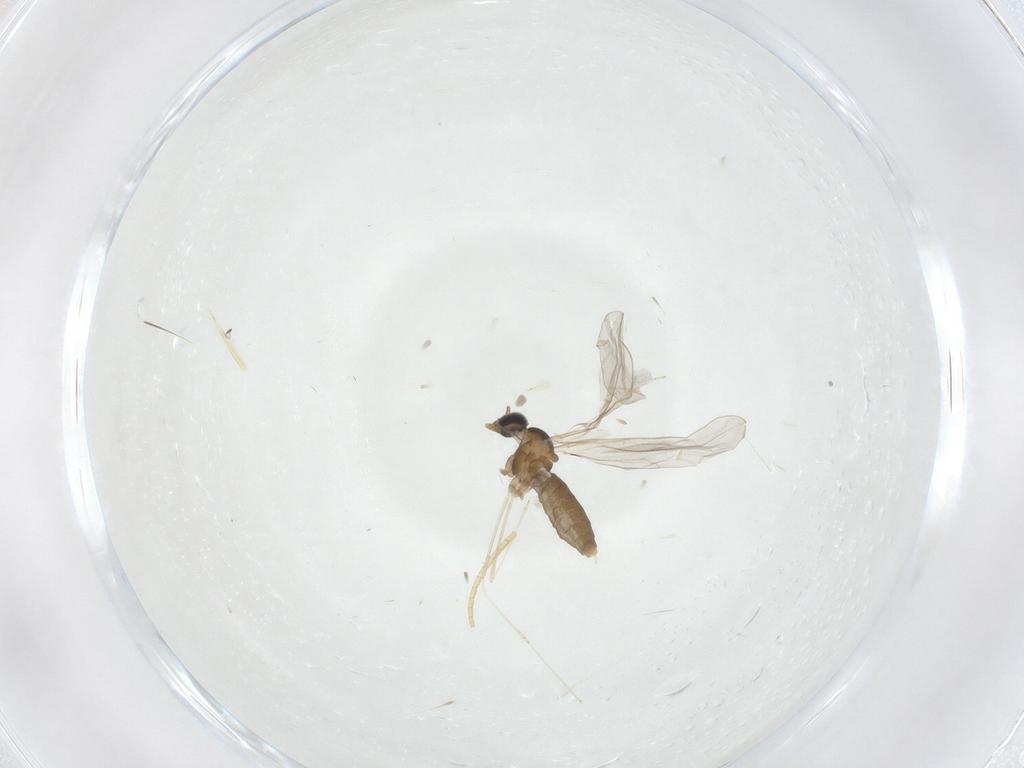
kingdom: Animalia
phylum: Arthropoda
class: Insecta
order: Diptera
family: Cecidomyiidae
